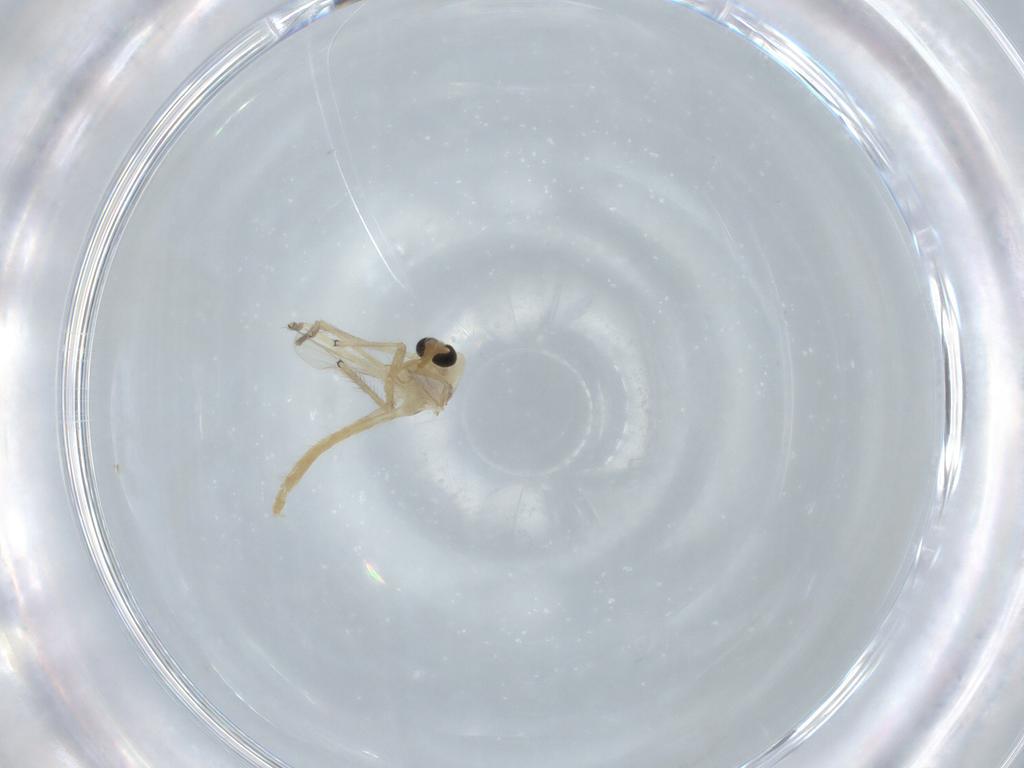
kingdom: Animalia
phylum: Arthropoda
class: Insecta
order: Diptera
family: Chironomidae
